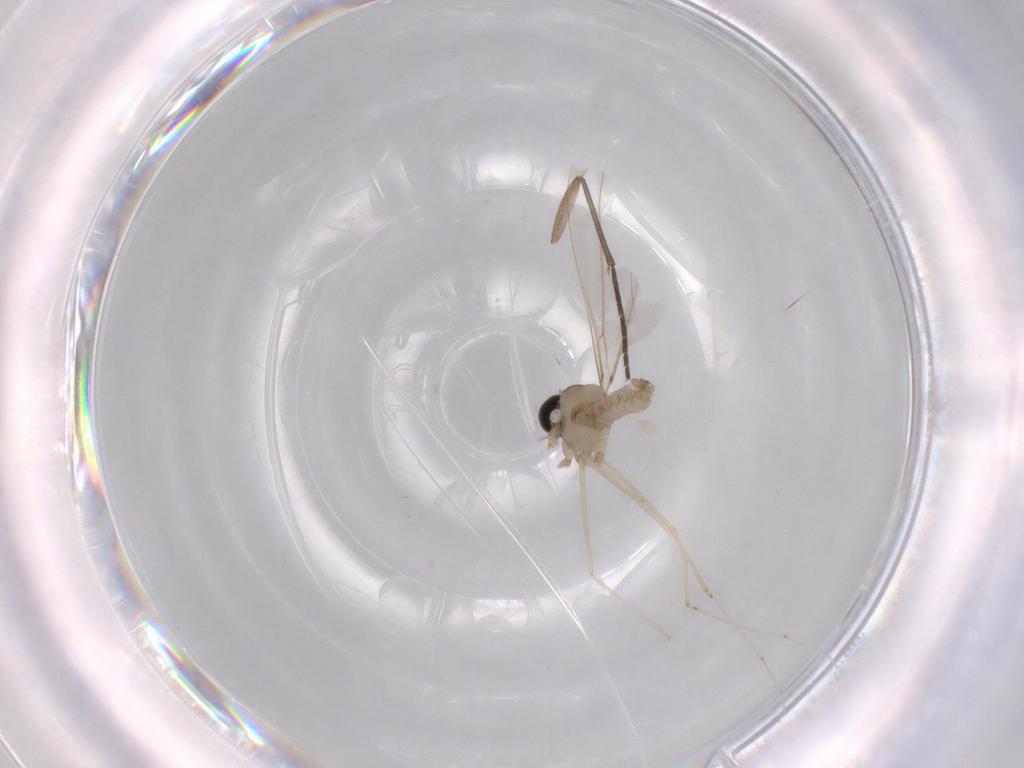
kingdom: Animalia
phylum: Arthropoda
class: Insecta
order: Diptera
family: Cecidomyiidae
